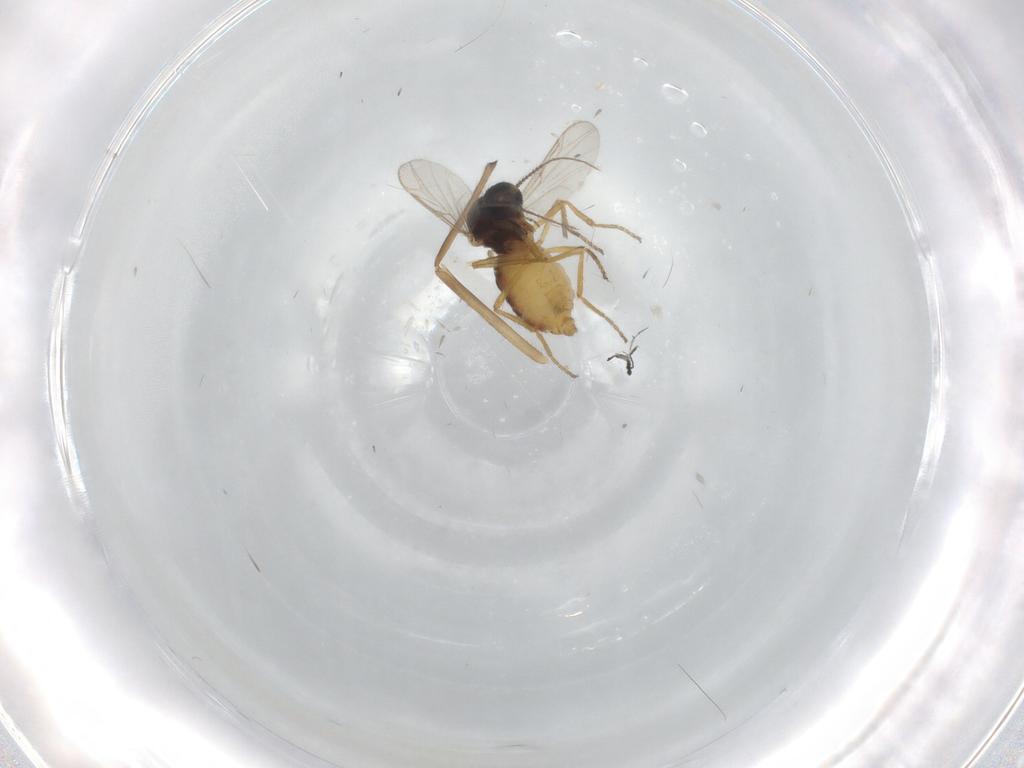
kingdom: Animalia
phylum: Arthropoda
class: Insecta
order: Diptera
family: Ceratopogonidae
